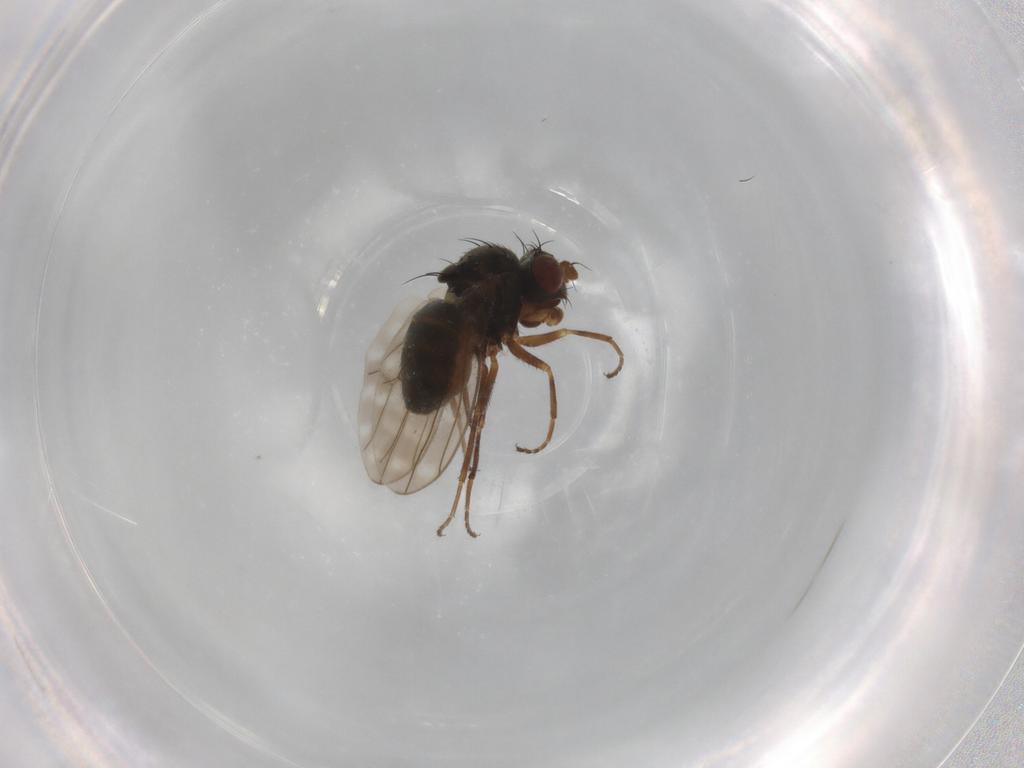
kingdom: Animalia
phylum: Arthropoda
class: Insecta
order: Diptera
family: Ephydridae
